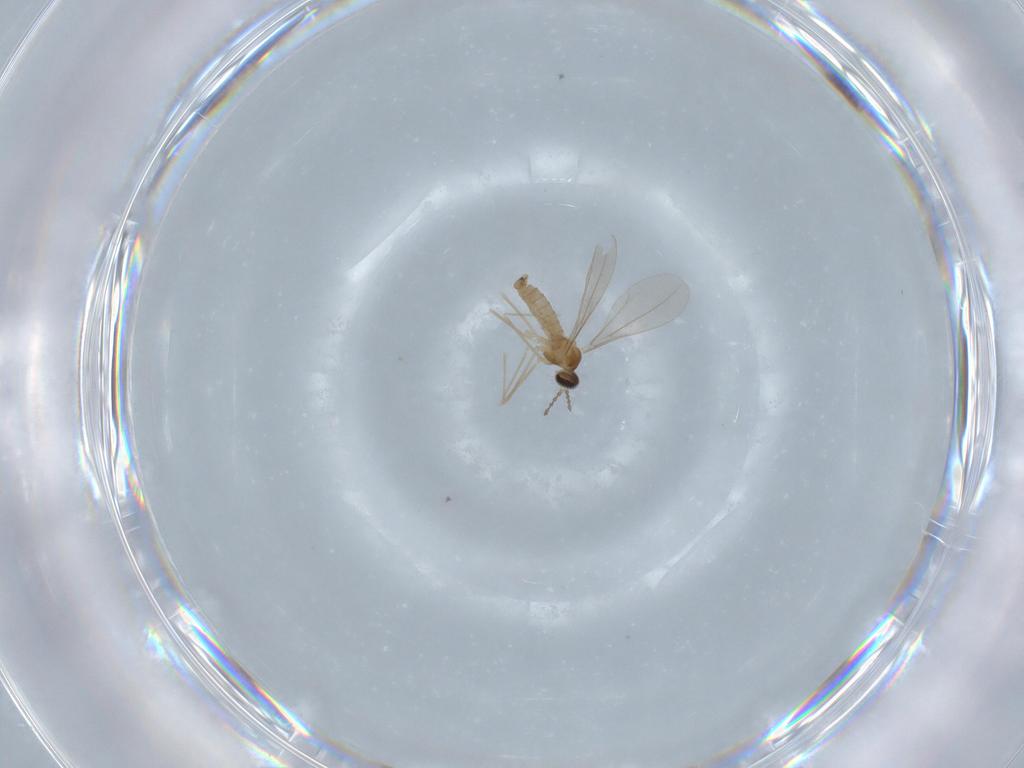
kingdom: Animalia
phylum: Arthropoda
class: Insecta
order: Diptera
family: Cecidomyiidae
